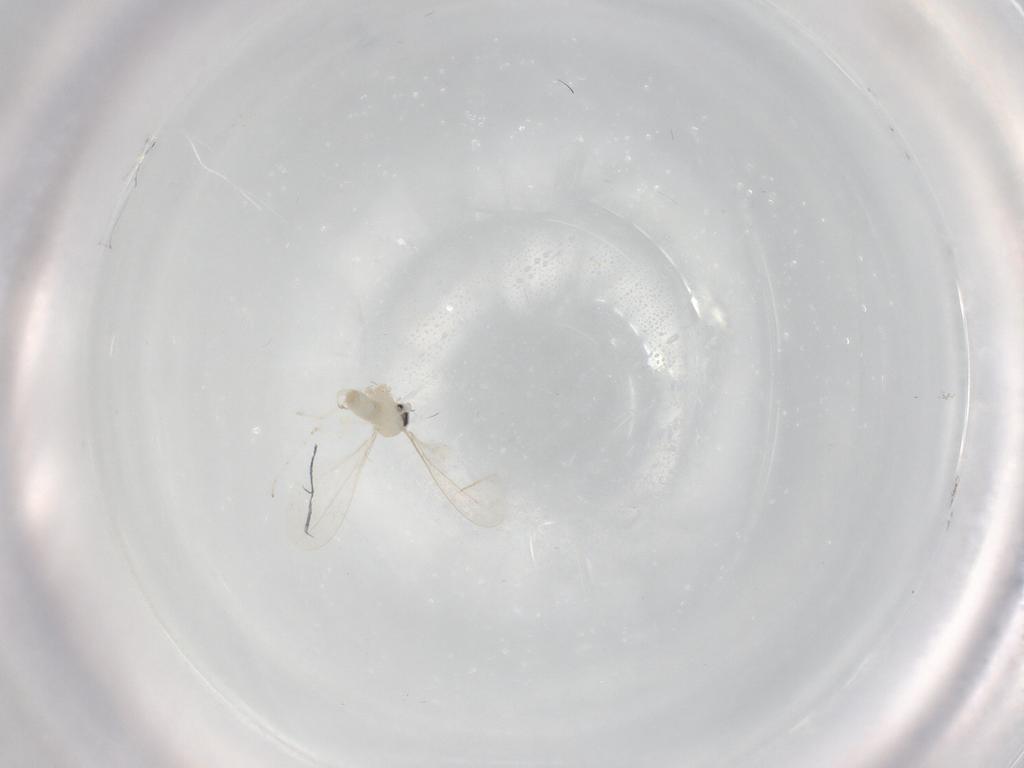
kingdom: Animalia
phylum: Arthropoda
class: Insecta
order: Diptera
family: Cecidomyiidae
